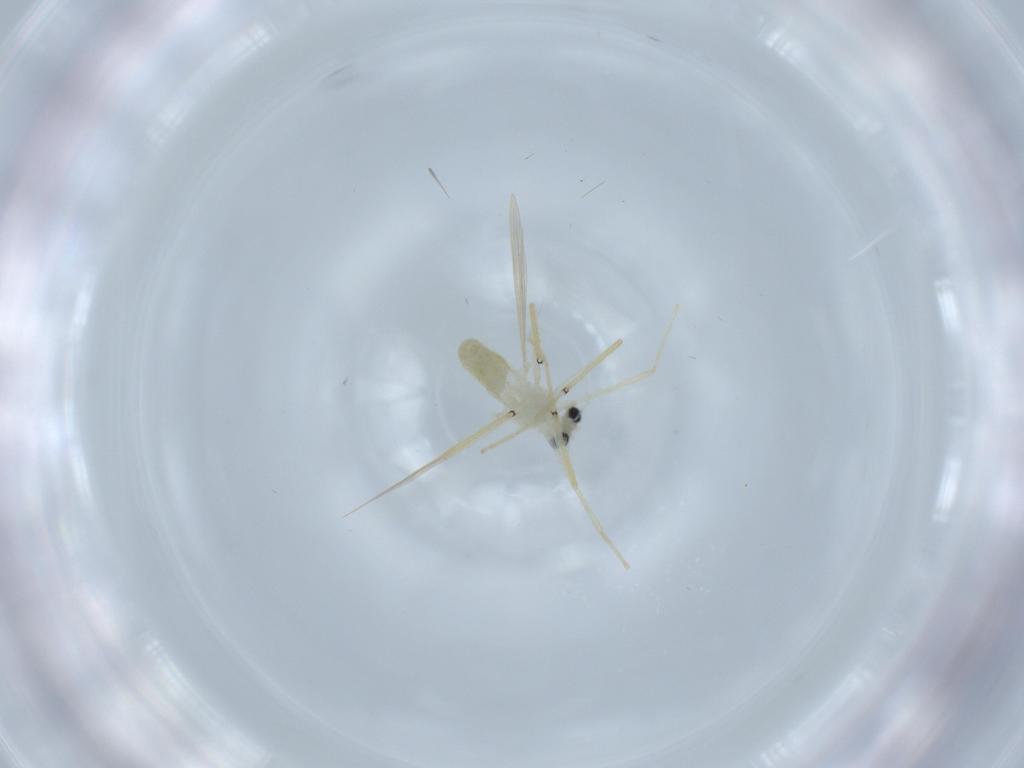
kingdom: Animalia
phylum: Arthropoda
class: Insecta
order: Diptera
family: Chironomidae
